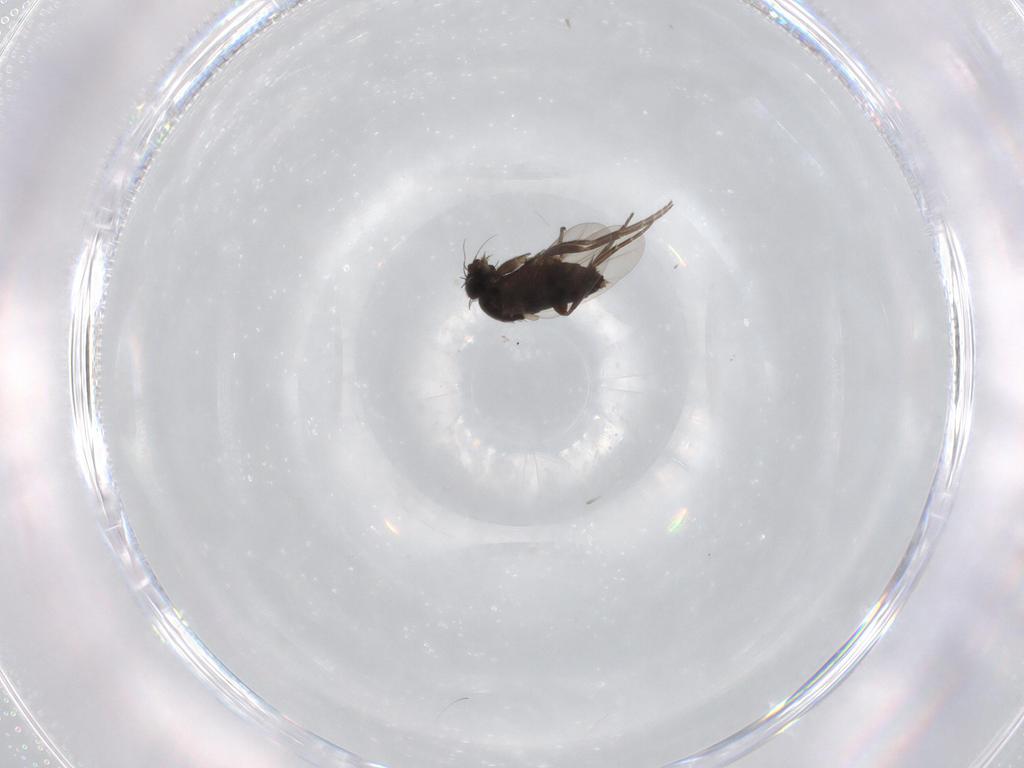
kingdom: Animalia
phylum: Arthropoda
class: Insecta
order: Diptera
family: Phoridae
